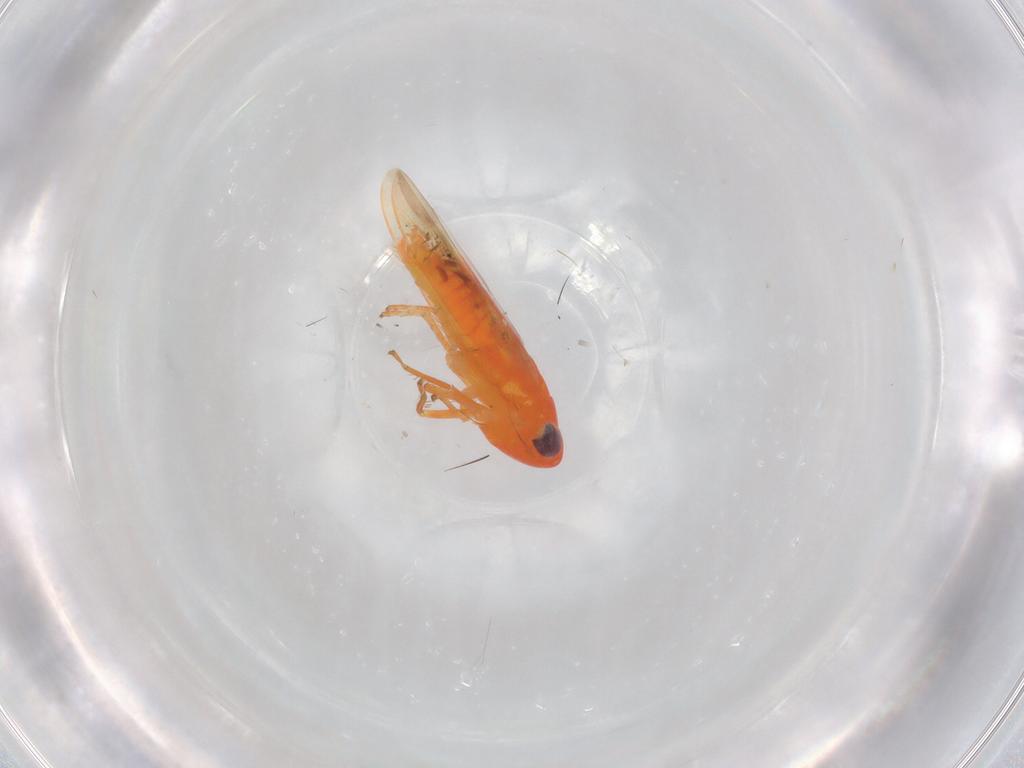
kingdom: Animalia
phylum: Arthropoda
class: Insecta
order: Hemiptera
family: Cicadellidae
